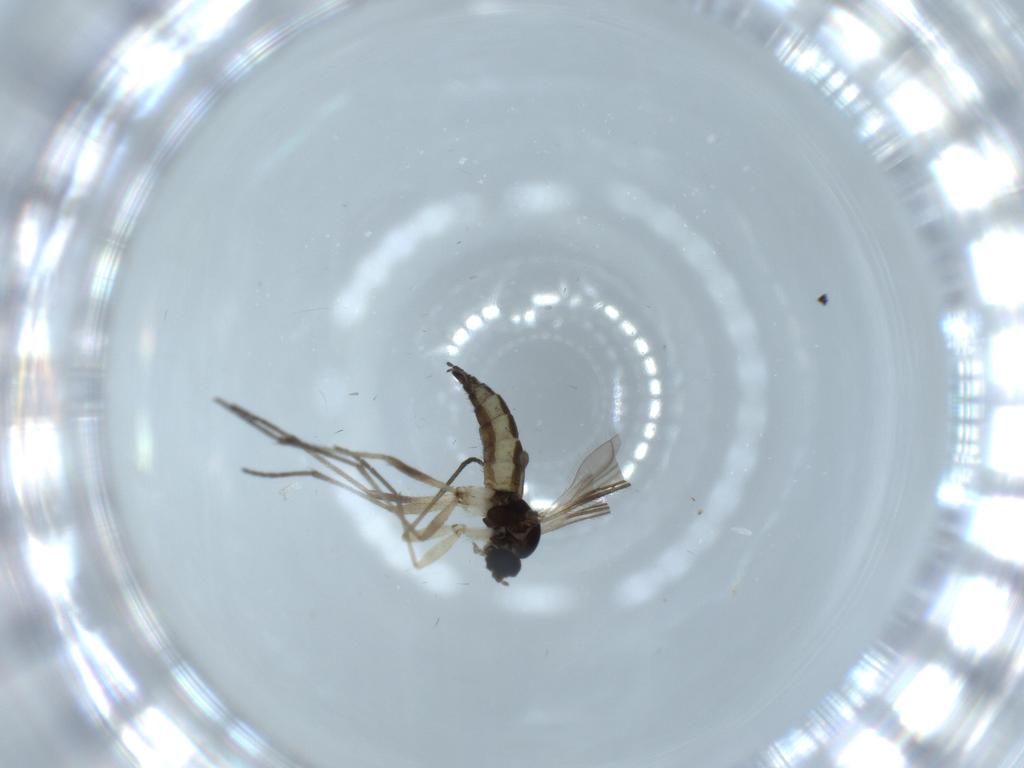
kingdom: Animalia
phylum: Arthropoda
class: Insecta
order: Diptera
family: Sciaridae
